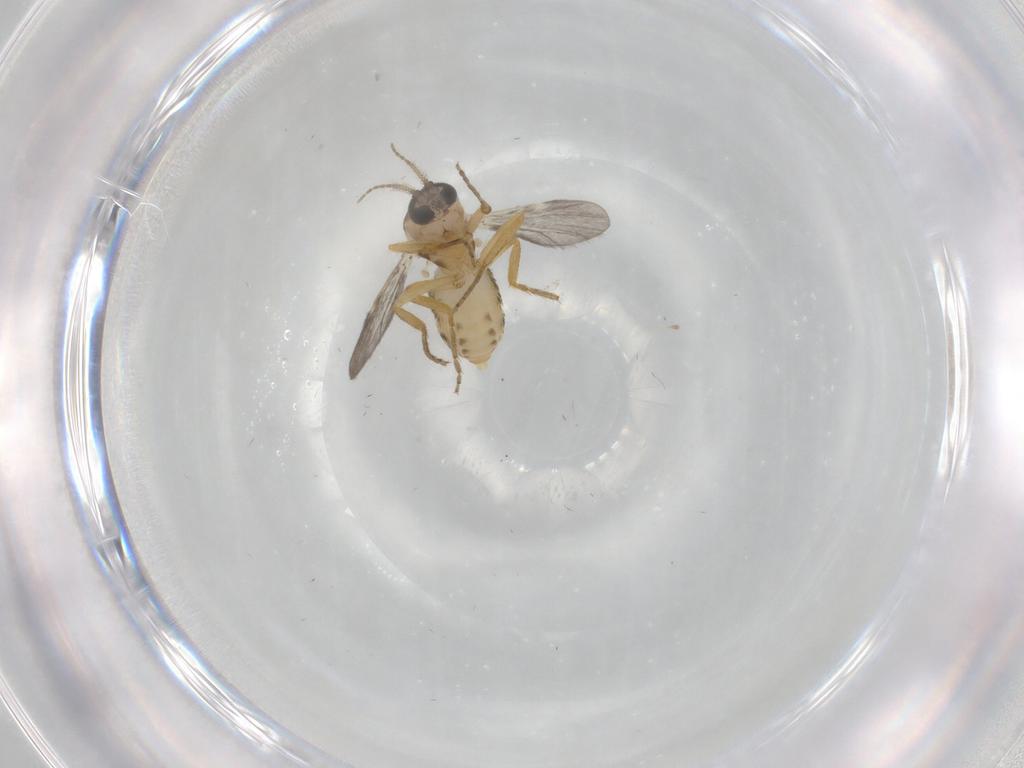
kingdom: Animalia
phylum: Arthropoda
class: Insecta
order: Diptera
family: Ceratopogonidae
